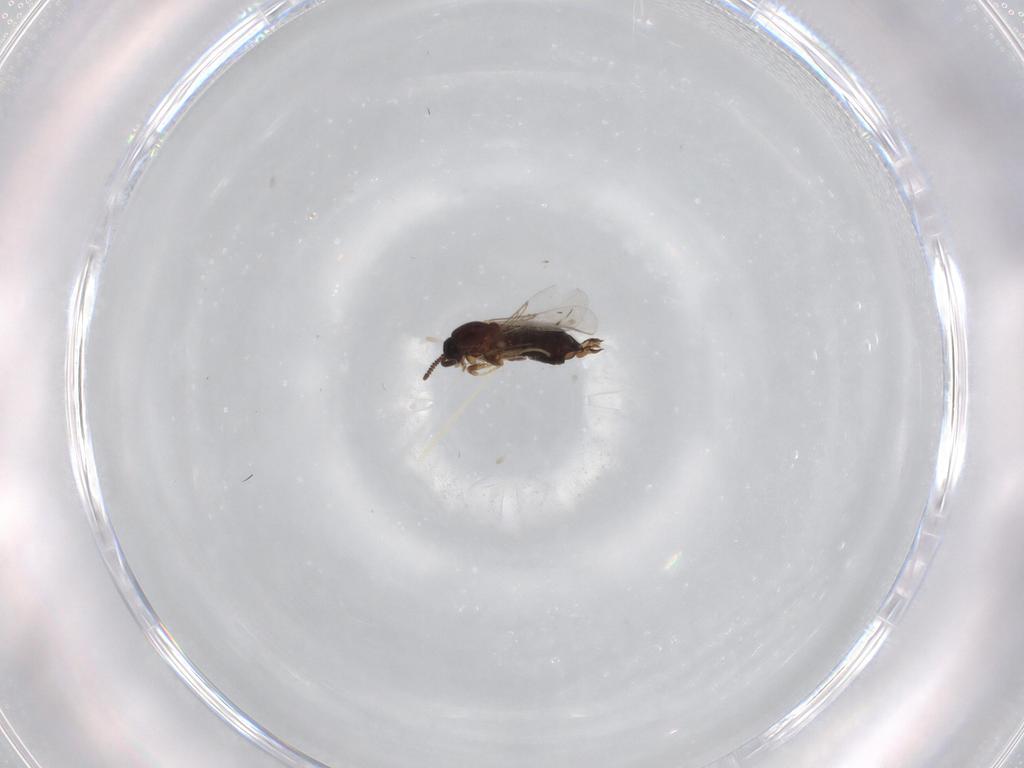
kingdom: Animalia
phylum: Arthropoda
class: Insecta
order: Diptera
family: Scatopsidae
